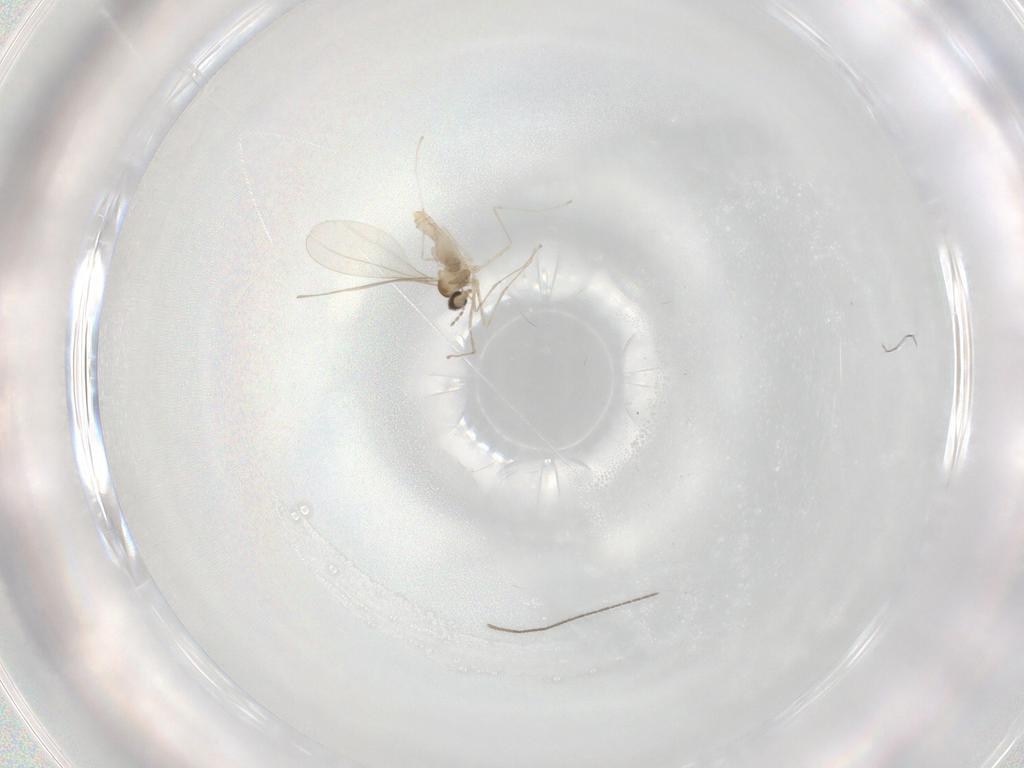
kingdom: Animalia
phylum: Arthropoda
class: Insecta
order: Diptera
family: Cecidomyiidae
